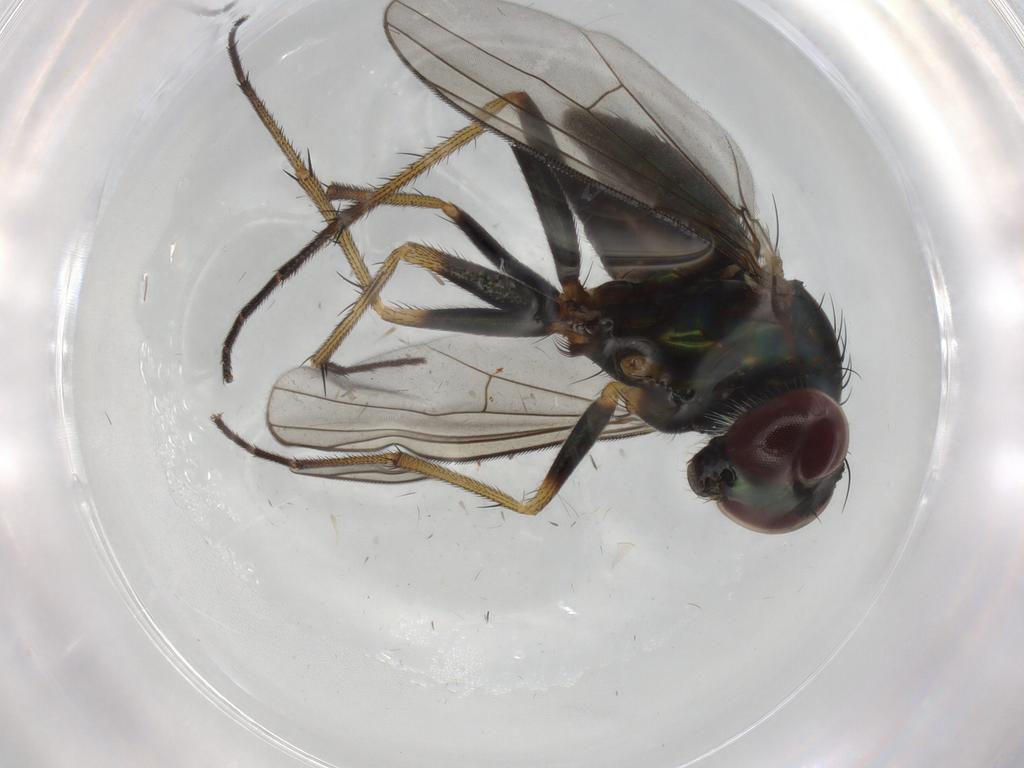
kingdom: Animalia
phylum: Arthropoda
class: Insecta
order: Diptera
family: Dolichopodidae
